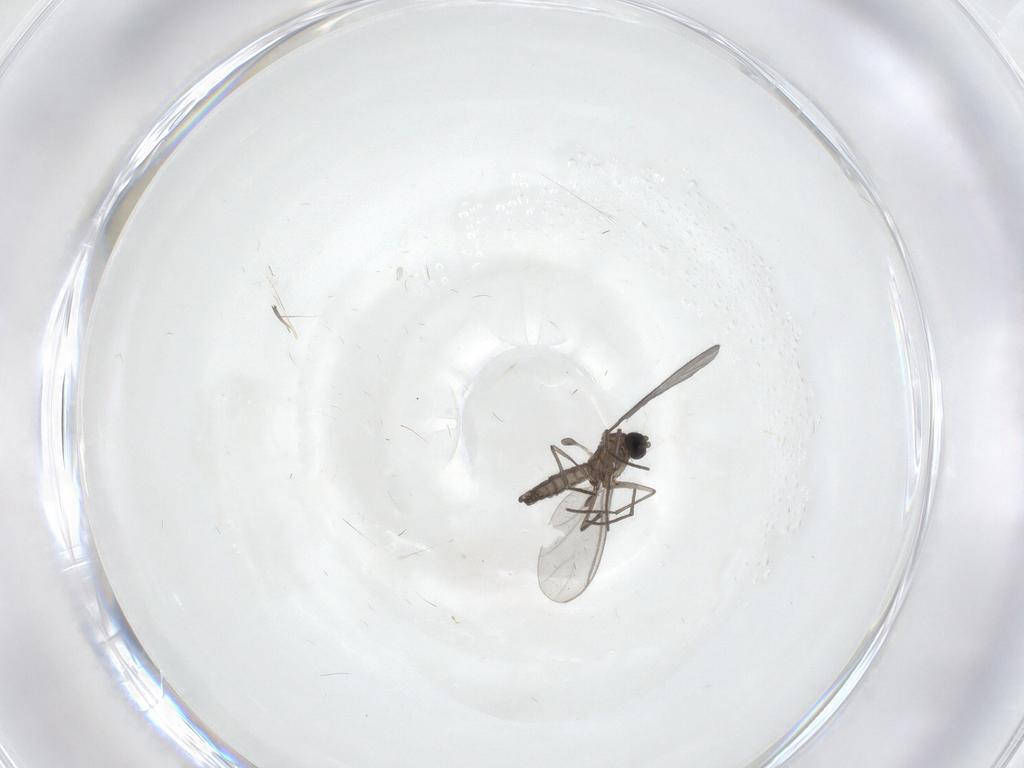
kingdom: Animalia
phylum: Arthropoda
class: Insecta
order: Diptera
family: Sciaridae
